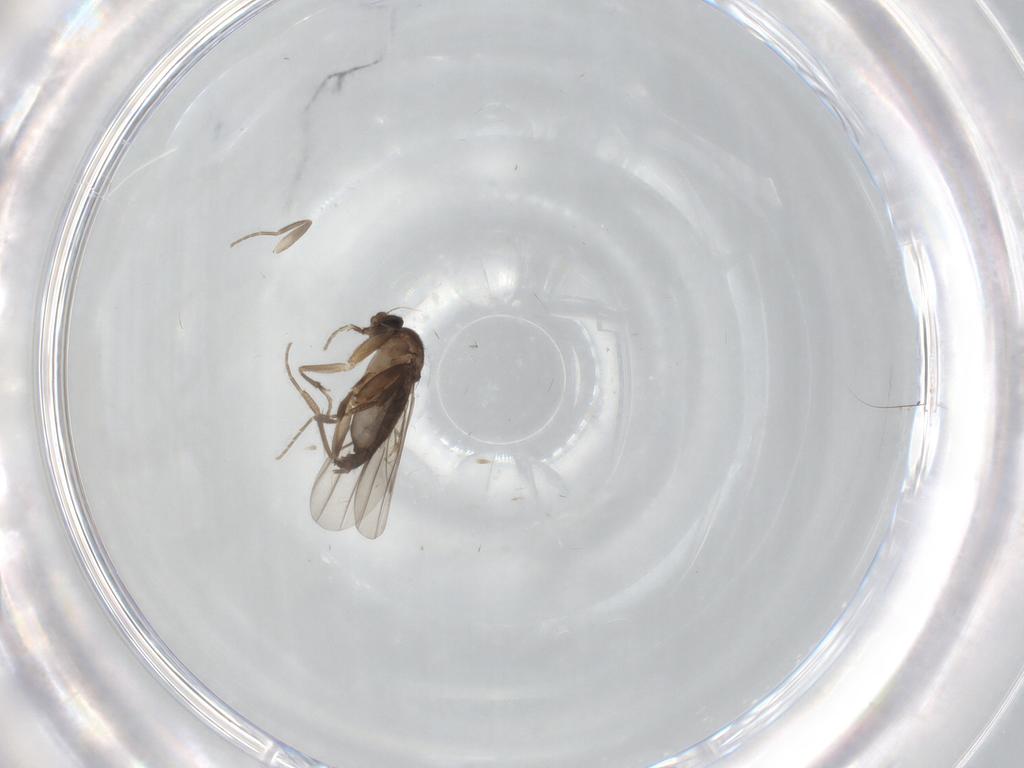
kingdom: Animalia
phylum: Arthropoda
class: Insecta
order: Diptera
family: Phoridae
